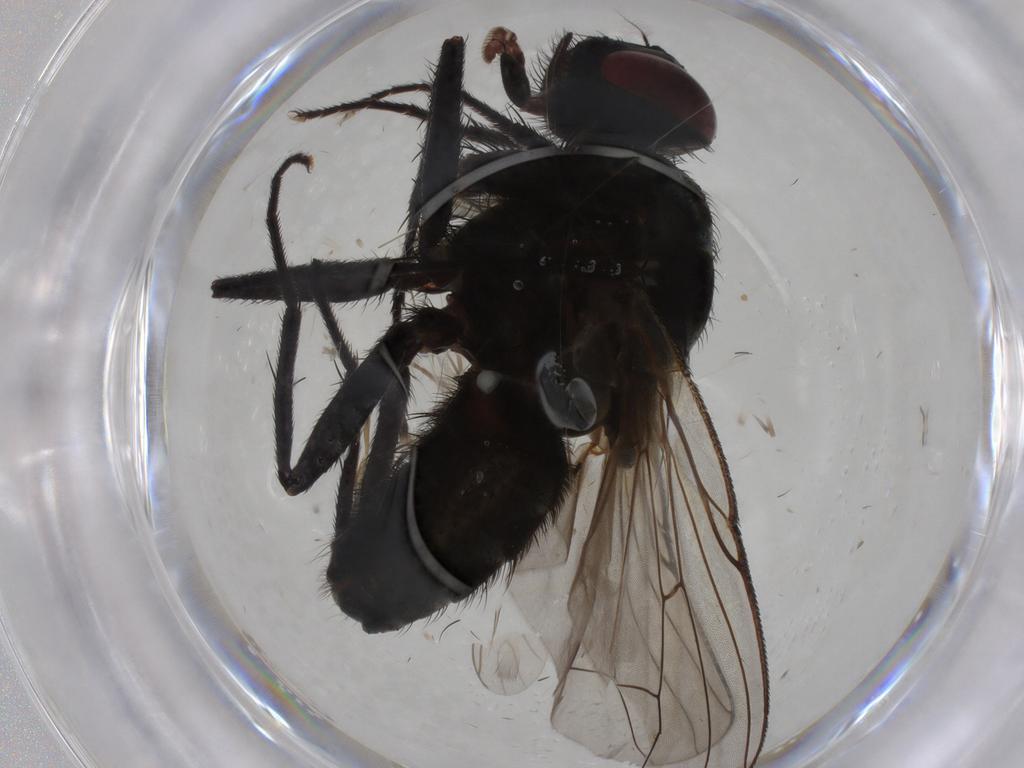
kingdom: Animalia
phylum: Arthropoda
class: Insecta
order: Diptera
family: Muscidae
